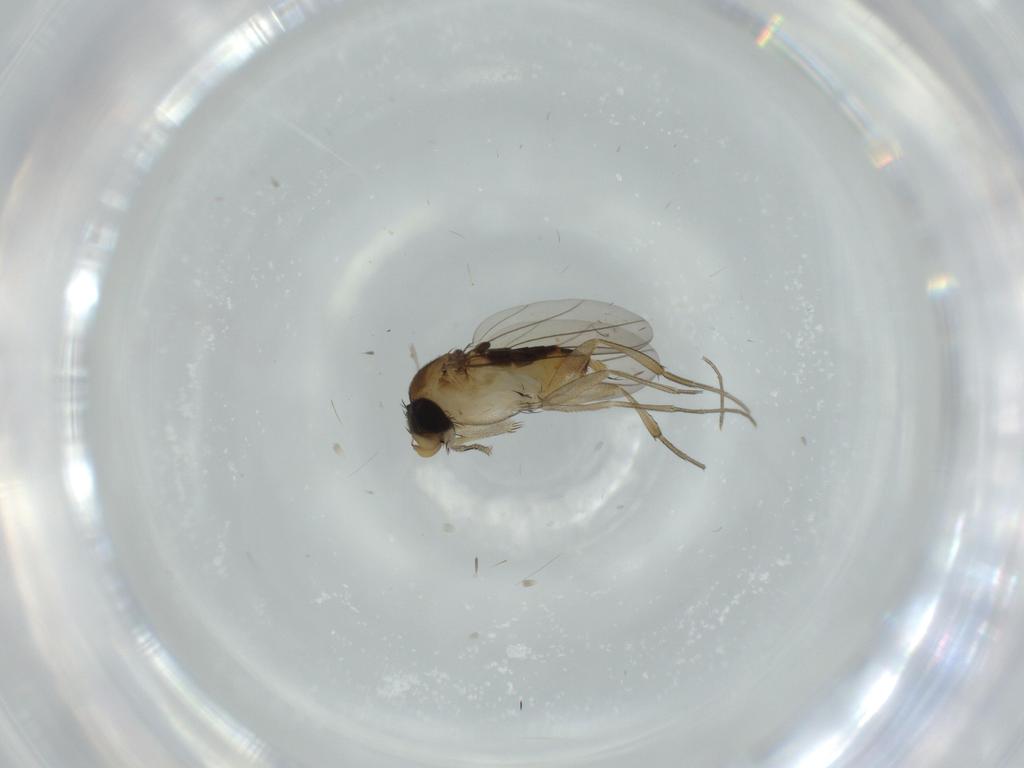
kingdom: Animalia
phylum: Arthropoda
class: Insecta
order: Diptera
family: Phoridae
